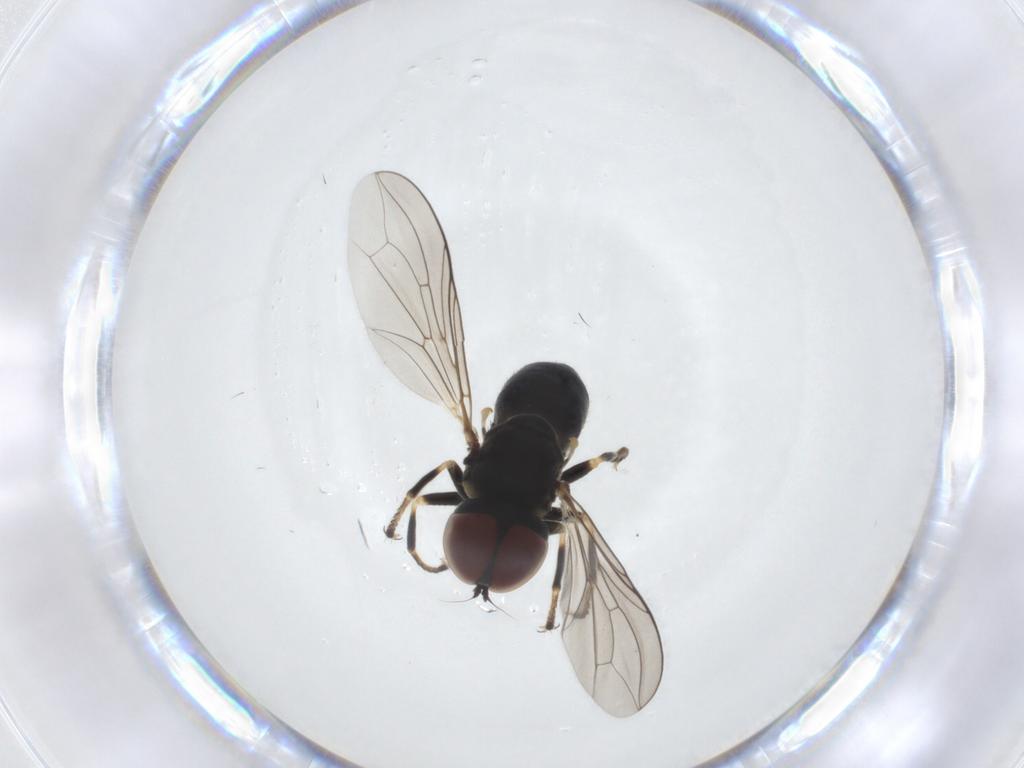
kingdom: Animalia
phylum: Arthropoda
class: Insecta
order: Diptera
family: Pipunculidae
